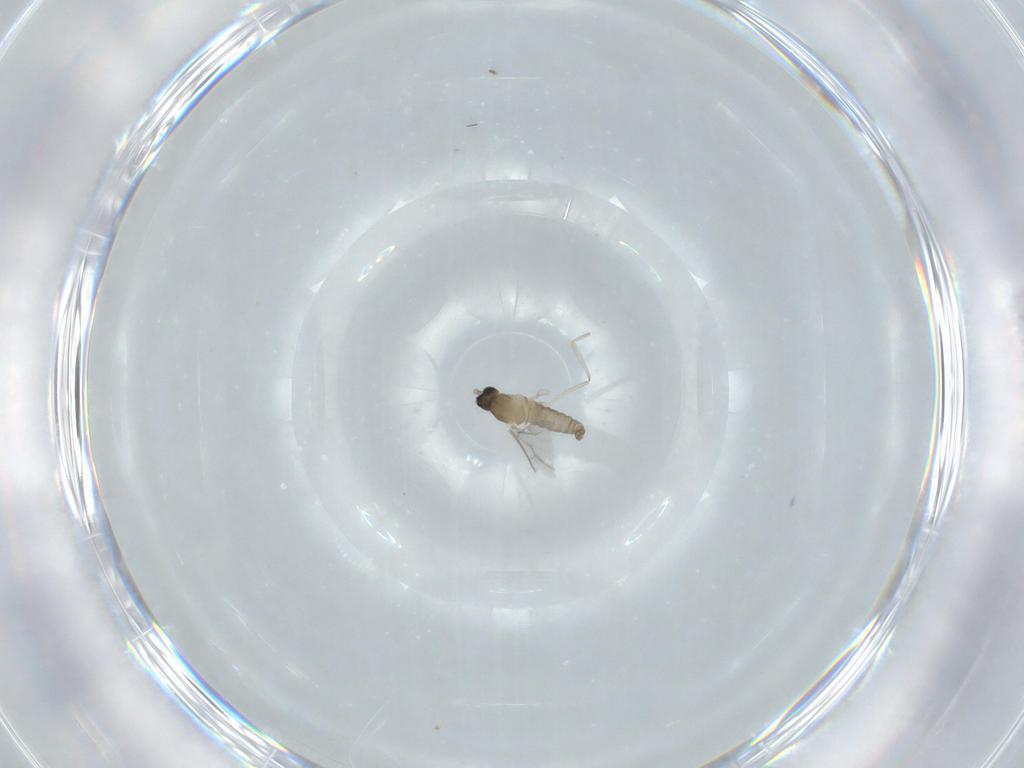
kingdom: Animalia
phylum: Arthropoda
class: Insecta
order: Diptera
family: Cecidomyiidae
